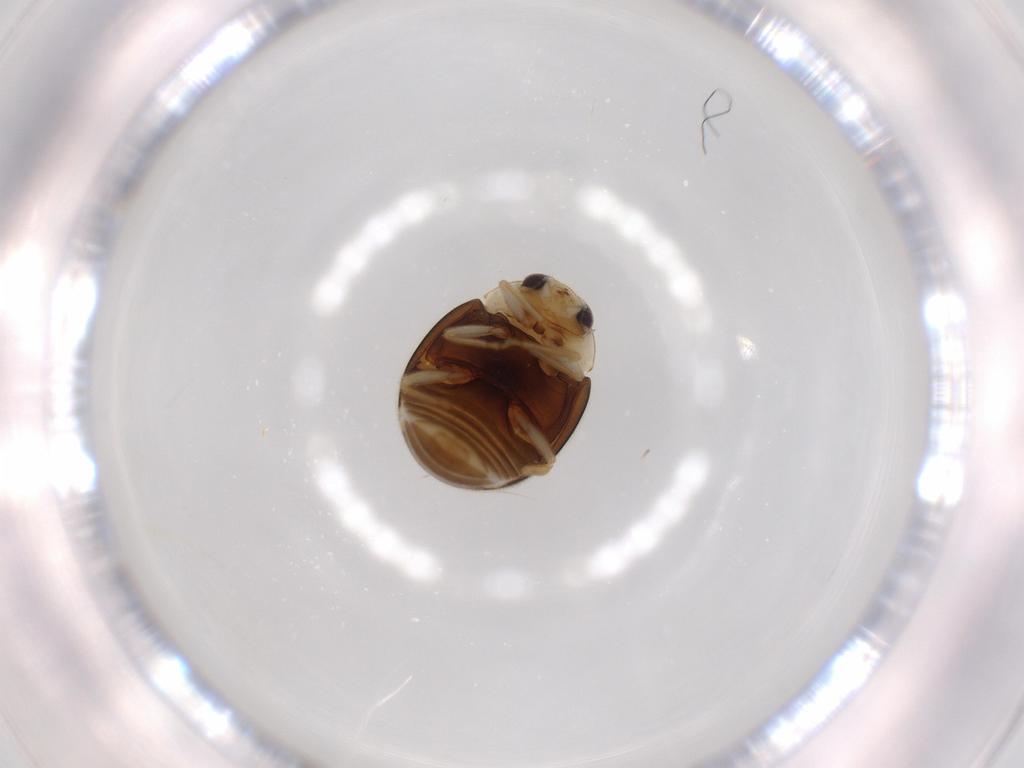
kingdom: Animalia
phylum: Arthropoda
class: Insecta
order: Coleoptera
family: Coccinellidae
